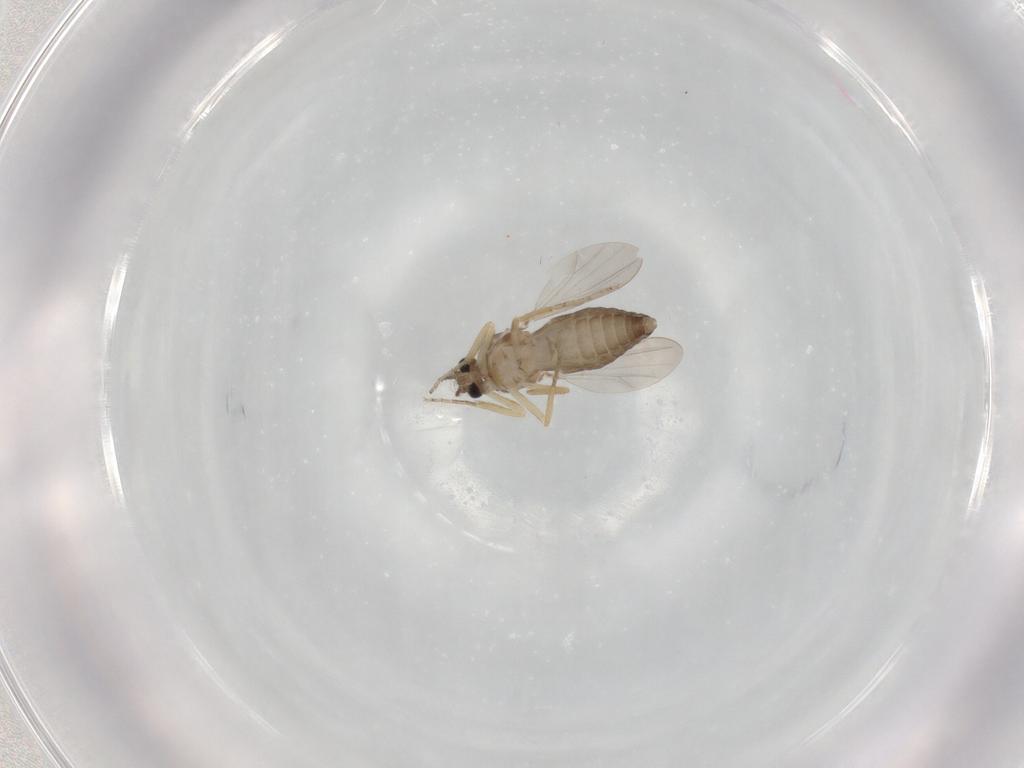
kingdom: Animalia
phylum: Arthropoda
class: Insecta
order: Diptera
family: Ceratopogonidae
